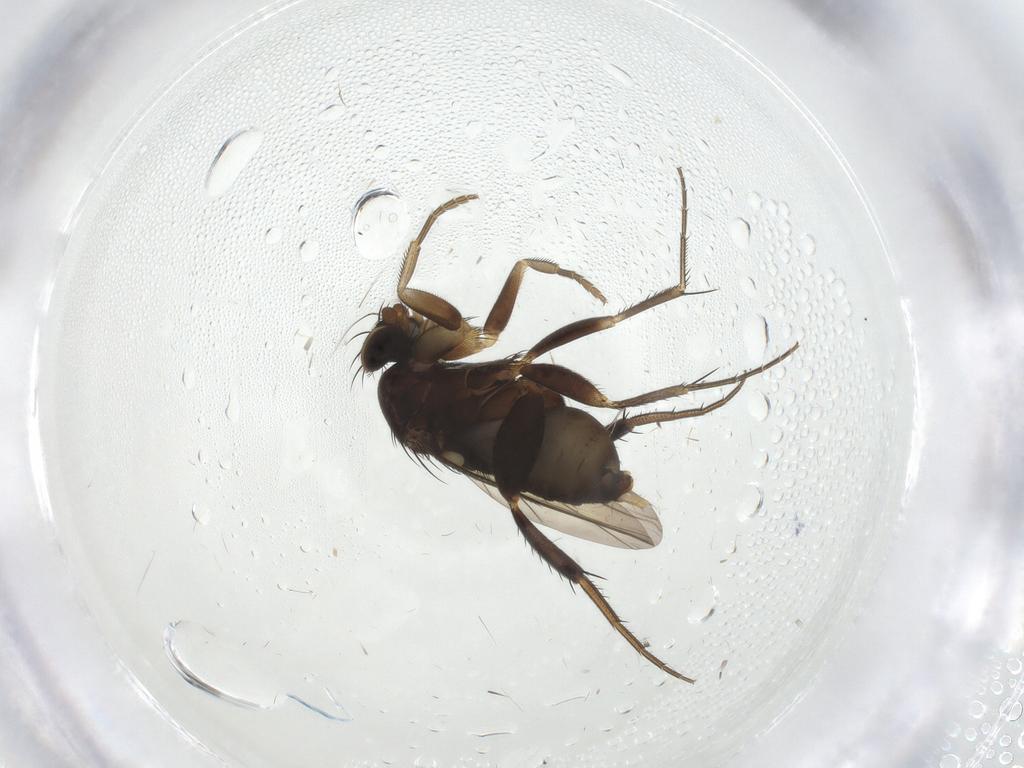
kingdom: Animalia
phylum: Arthropoda
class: Insecta
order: Diptera
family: Phoridae
